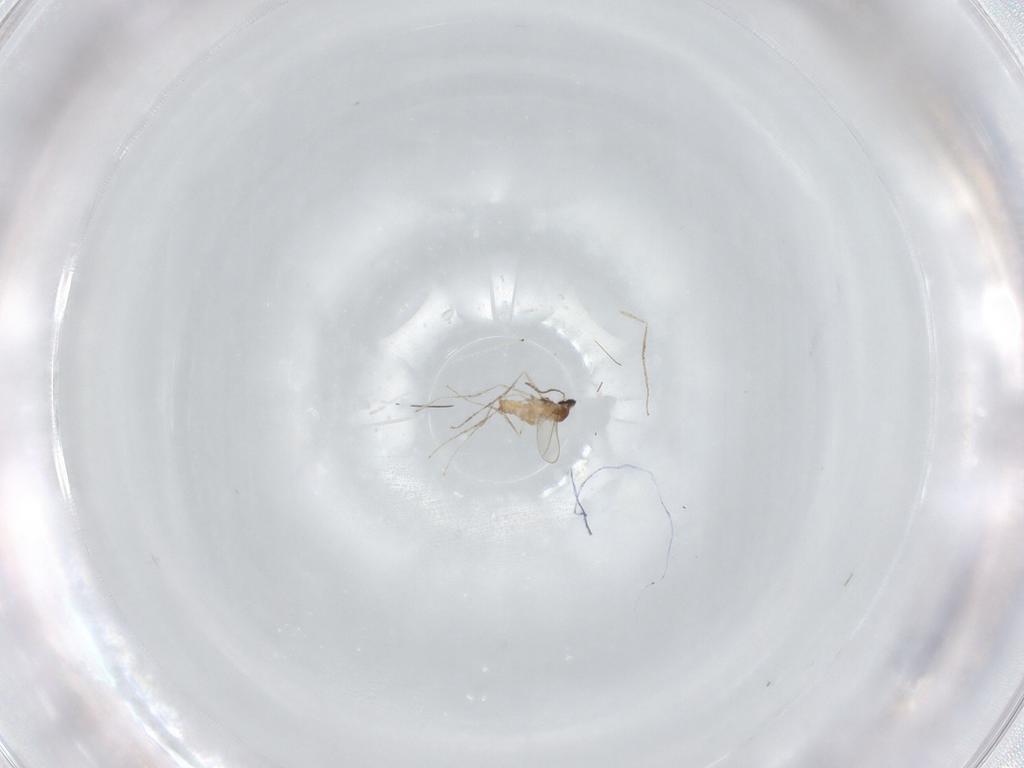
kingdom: Animalia
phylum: Arthropoda
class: Insecta
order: Diptera
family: Cecidomyiidae
